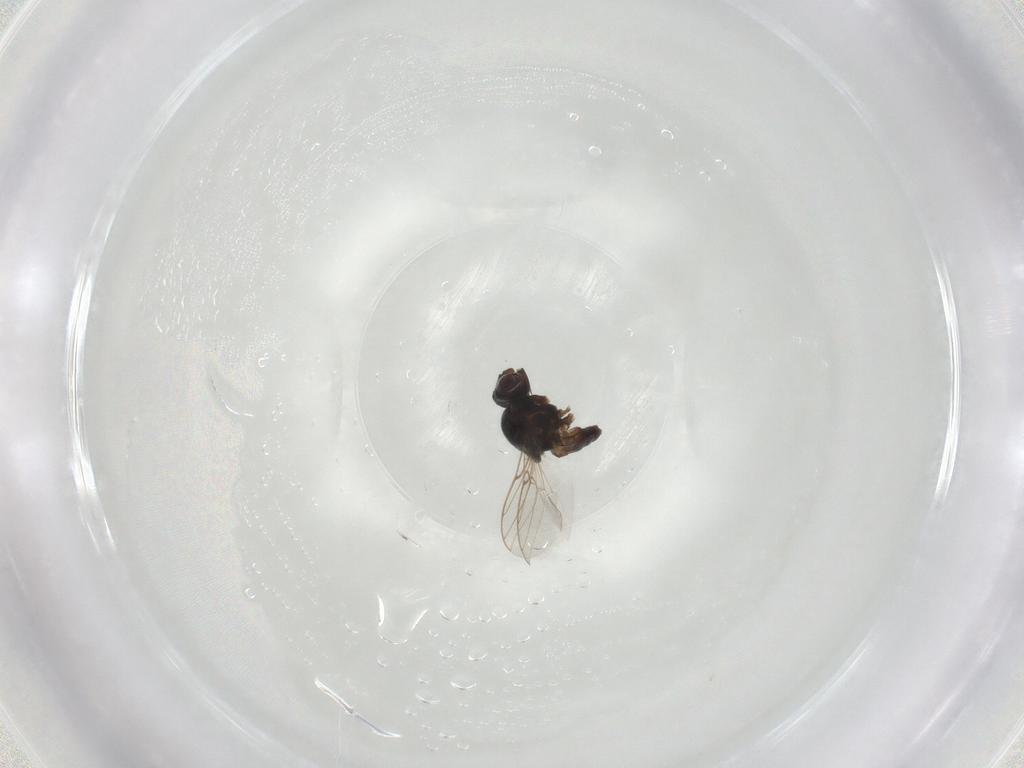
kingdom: Animalia
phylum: Arthropoda
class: Insecta
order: Diptera
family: Chloropidae
